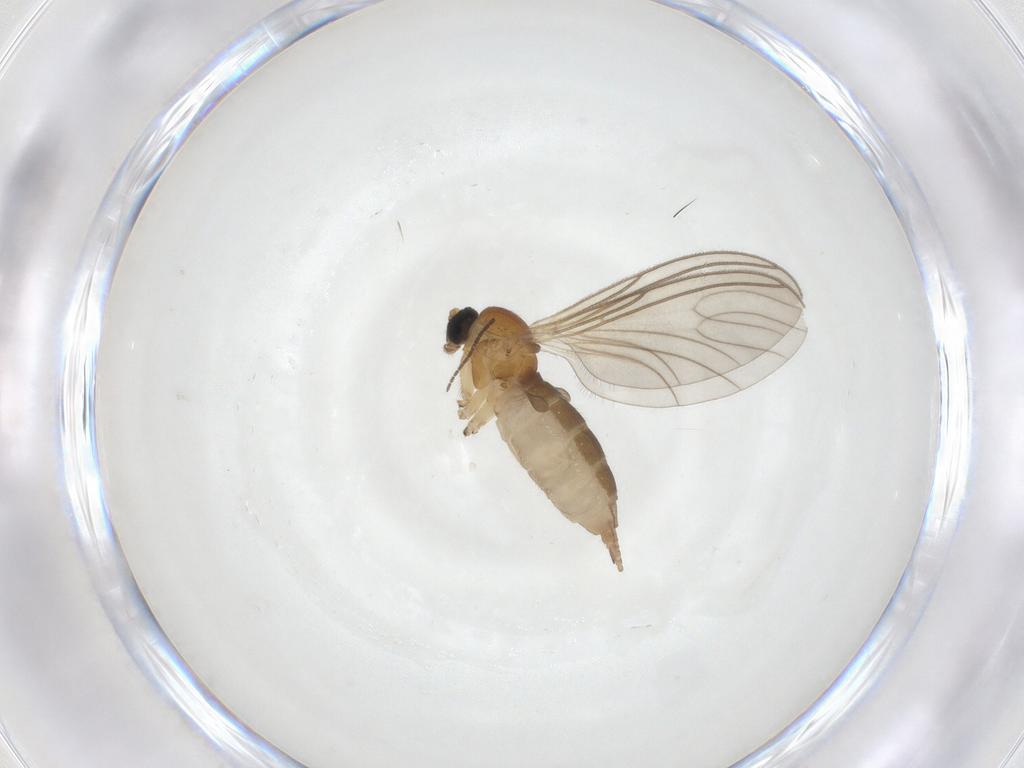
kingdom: Animalia
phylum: Arthropoda
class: Insecta
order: Diptera
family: Sciaridae
